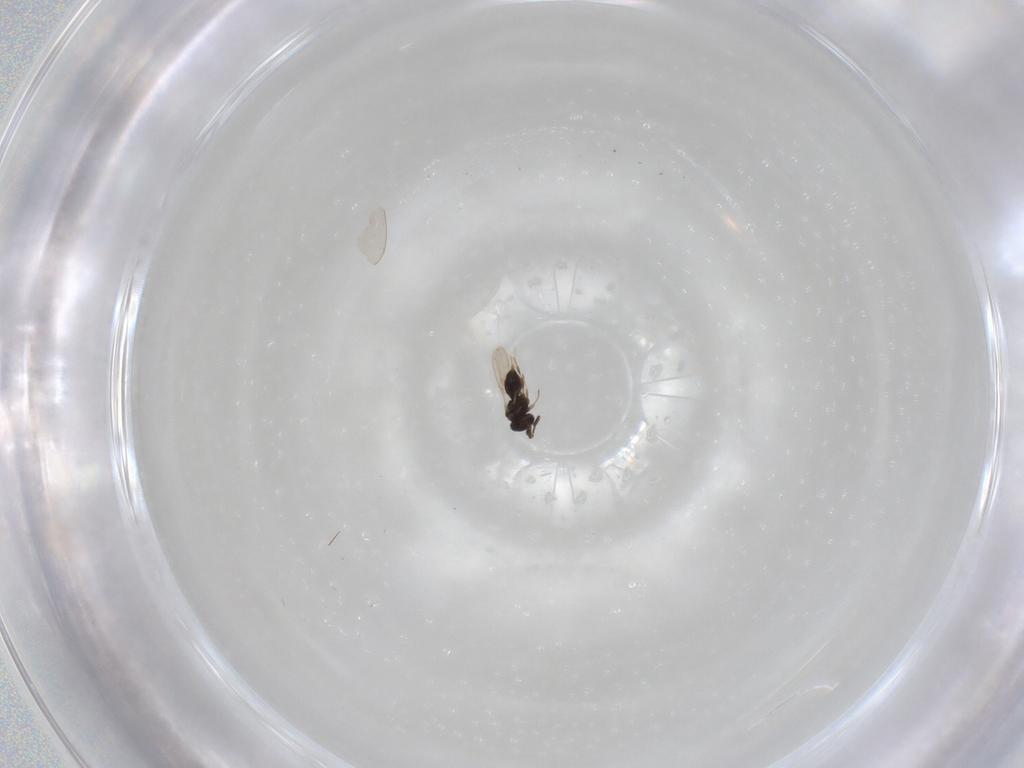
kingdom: Animalia
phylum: Arthropoda
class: Insecta
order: Hymenoptera
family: Scelionidae
